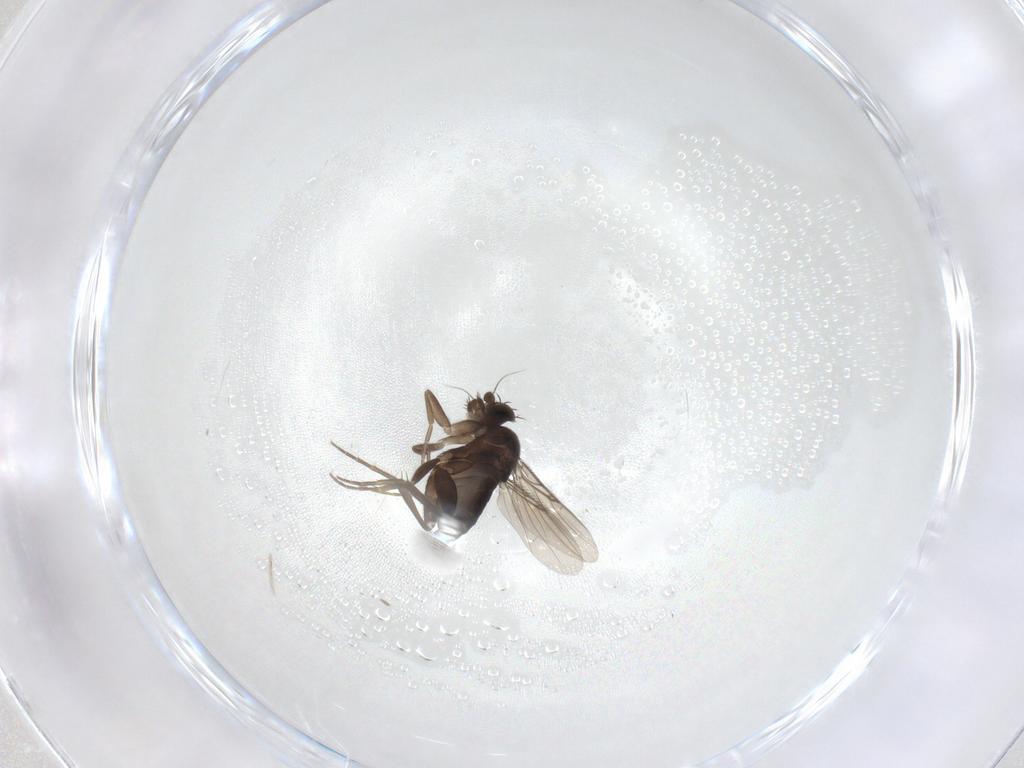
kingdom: Animalia
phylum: Arthropoda
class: Insecta
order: Diptera
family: Phoridae
